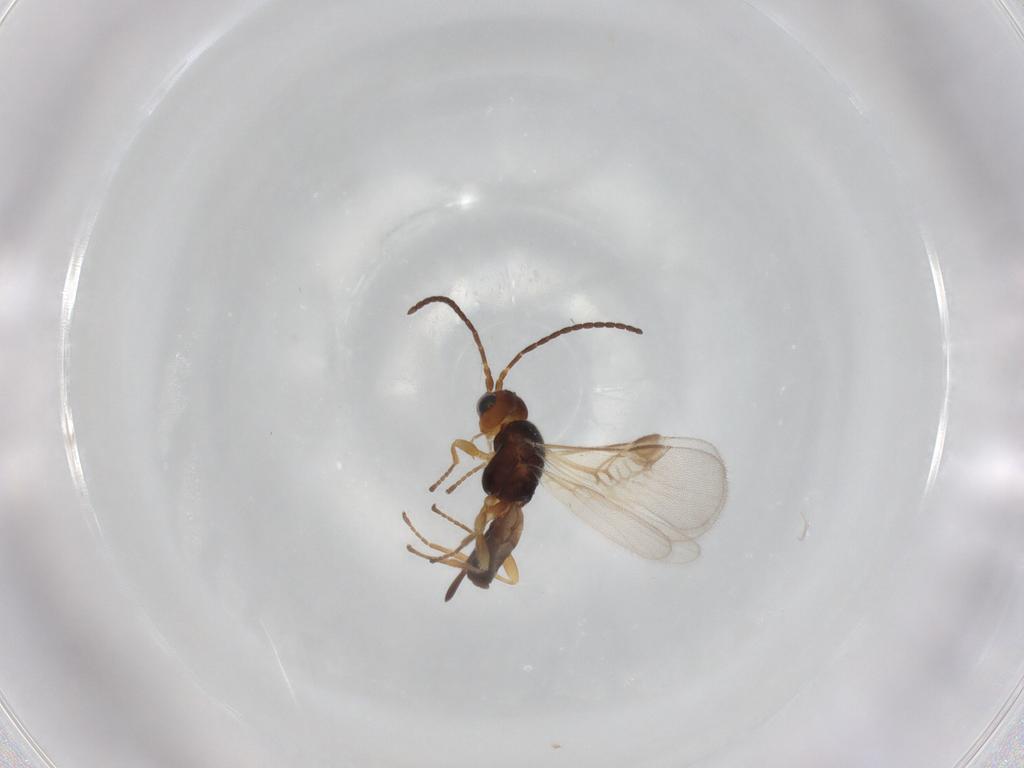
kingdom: Animalia
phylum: Arthropoda
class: Insecta
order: Hymenoptera
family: Braconidae
